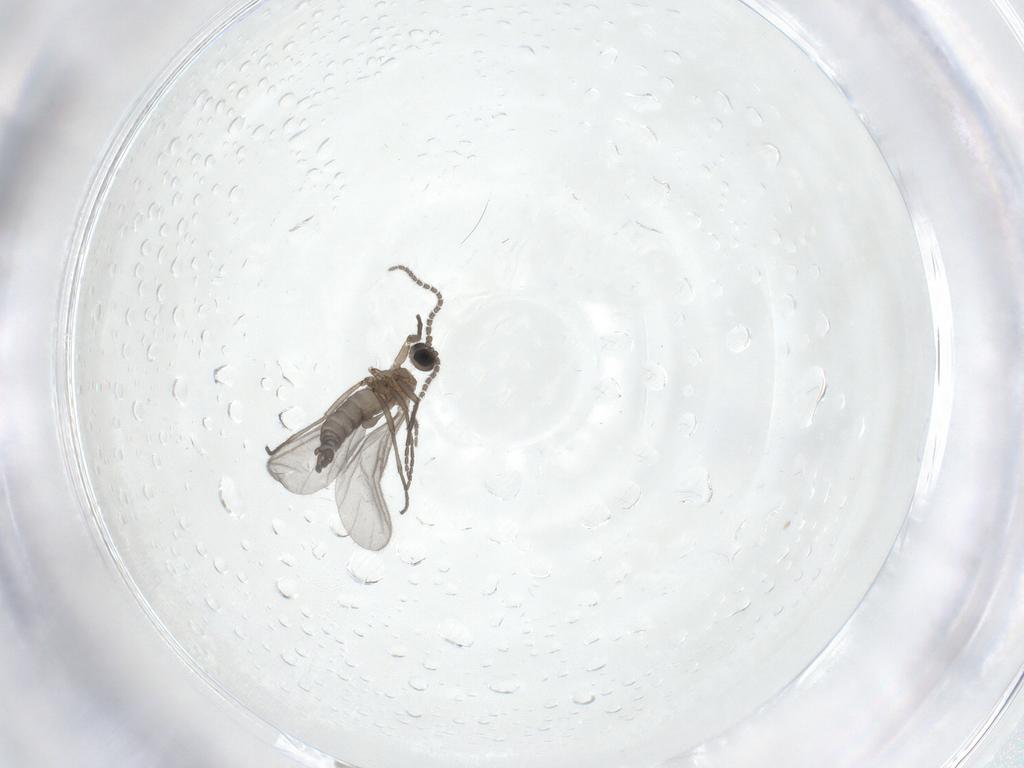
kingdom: Animalia
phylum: Arthropoda
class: Insecta
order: Diptera
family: Sciaridae
